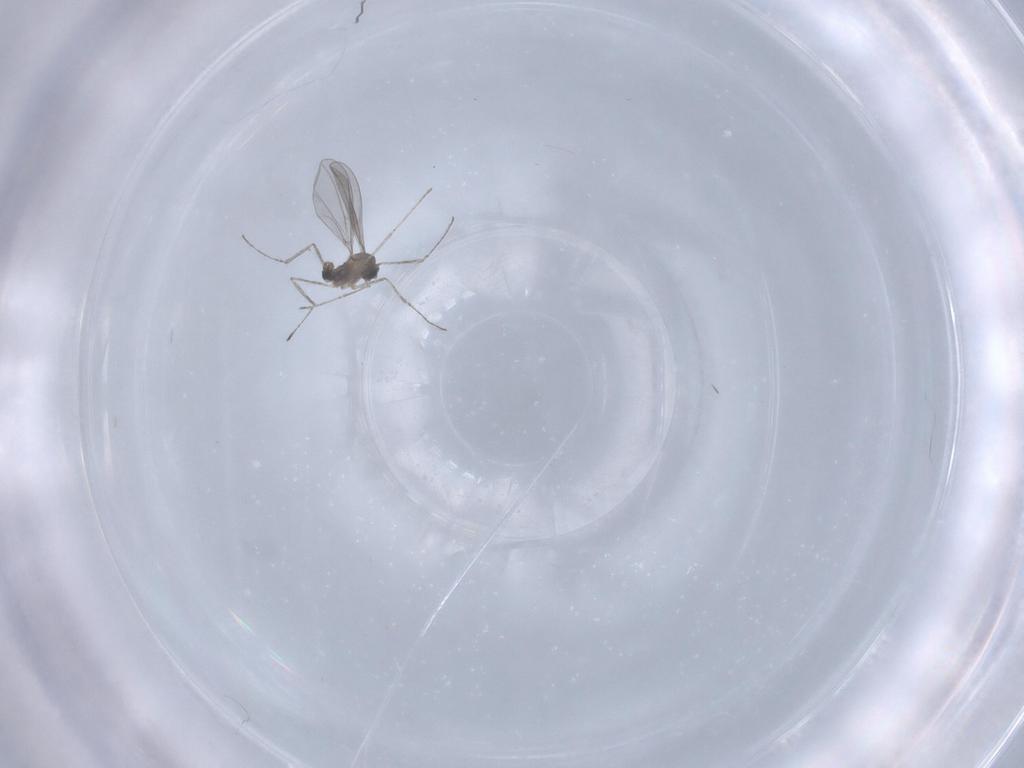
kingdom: Animalia
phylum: Arthropoda
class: Insecta
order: Diptera
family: Cecidomyiidae
